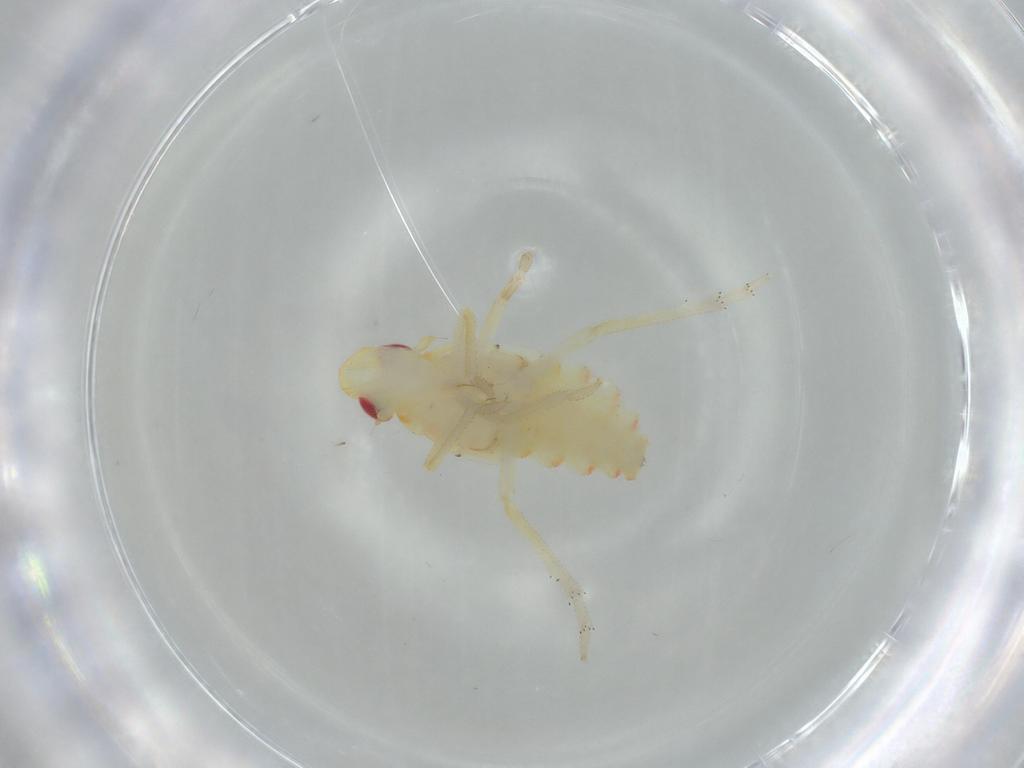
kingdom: Animalia
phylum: Arthropoda
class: Insecta
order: Hemiptera
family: Tropiduchidae
